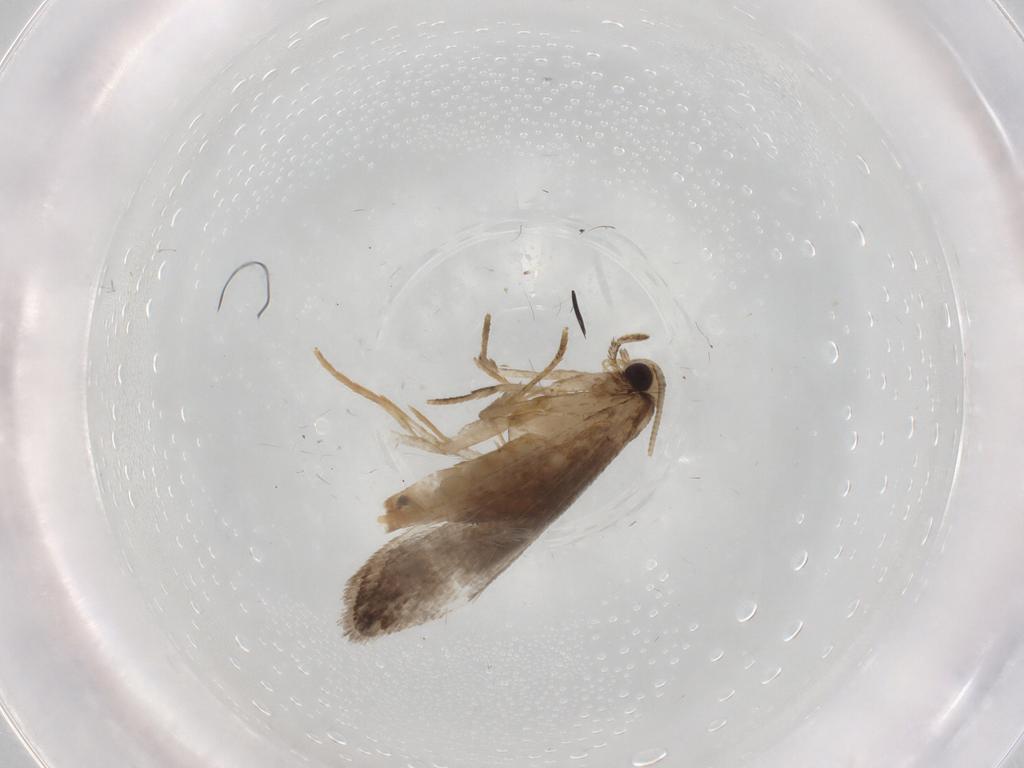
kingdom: Animalia
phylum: Arthropoda
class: Insecta
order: Lepidoptera
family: Tineidae
